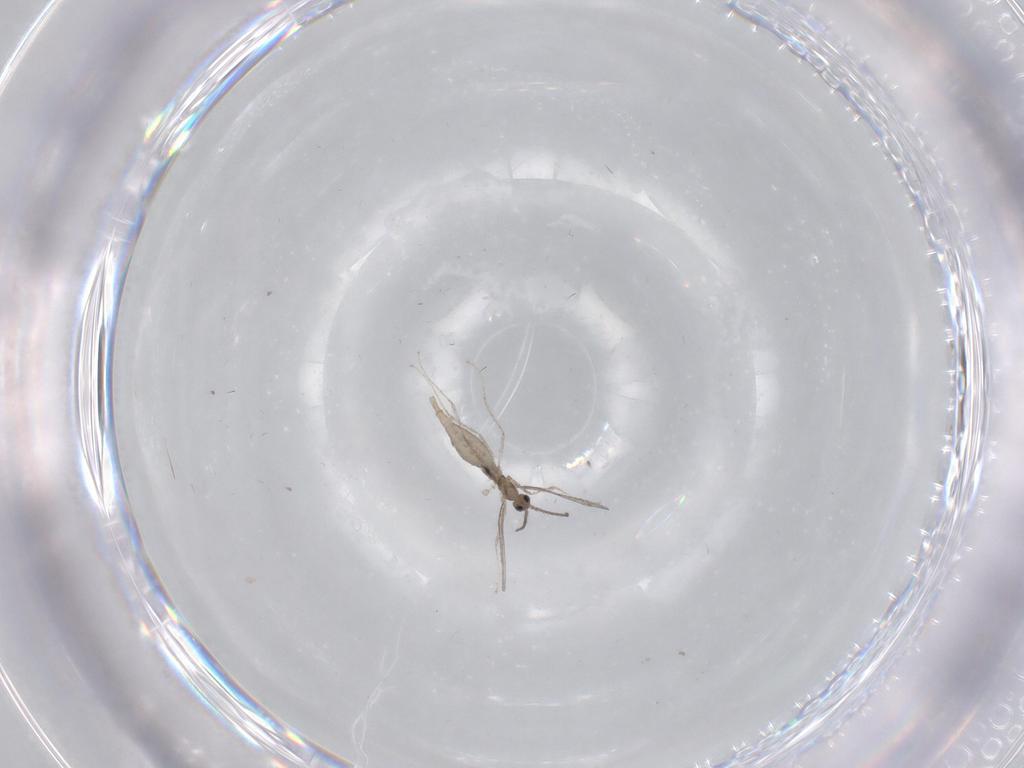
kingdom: Animalia
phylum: Arthropoda
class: Insecta
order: Diptera
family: Chironomidae
